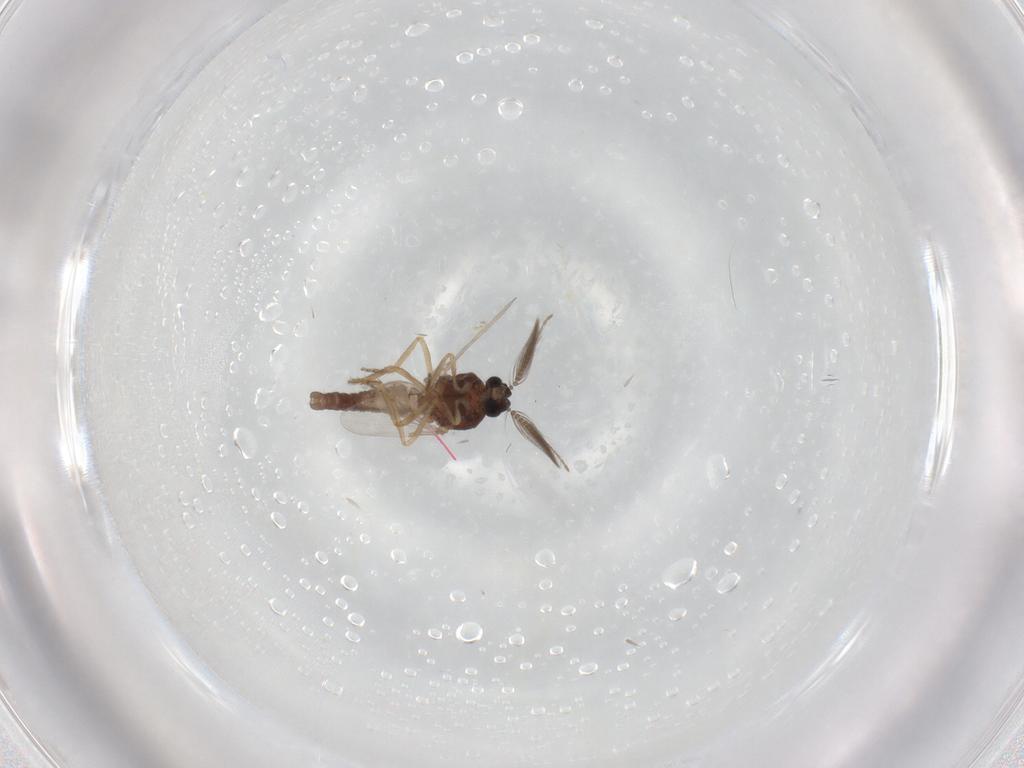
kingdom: Animalia
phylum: Arthropoda
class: Insecta
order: Diptera
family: Ceratopogonidae
